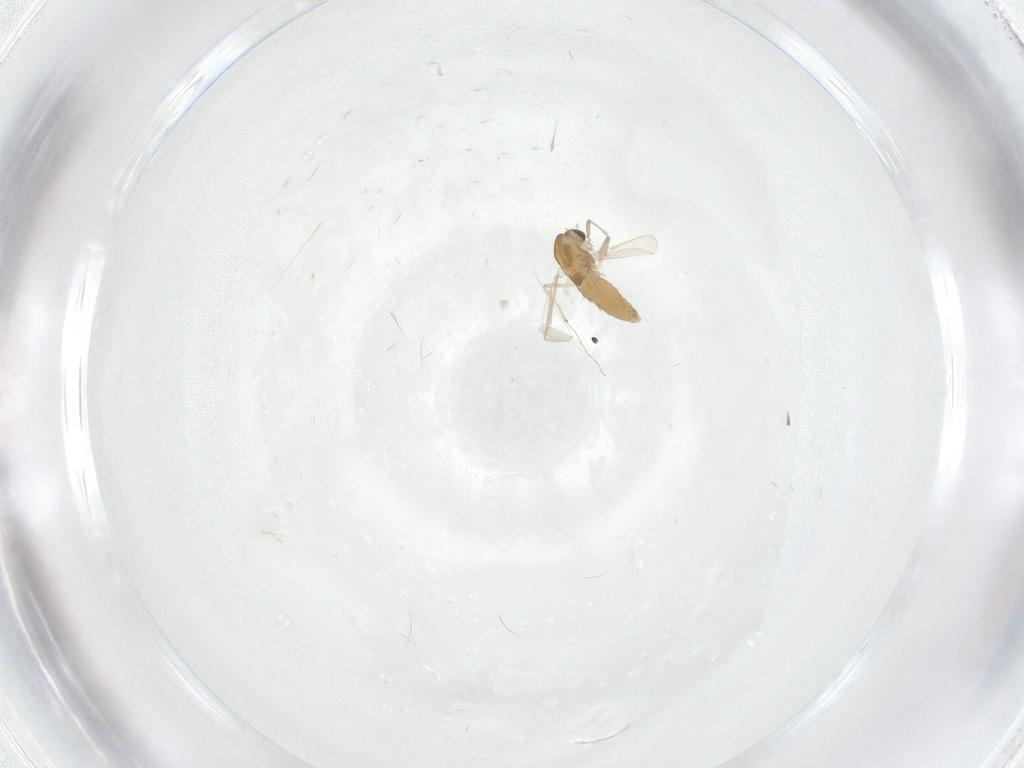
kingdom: Animalia
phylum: Arthropoda
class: Insecta
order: Diptera
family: Chironomidae
